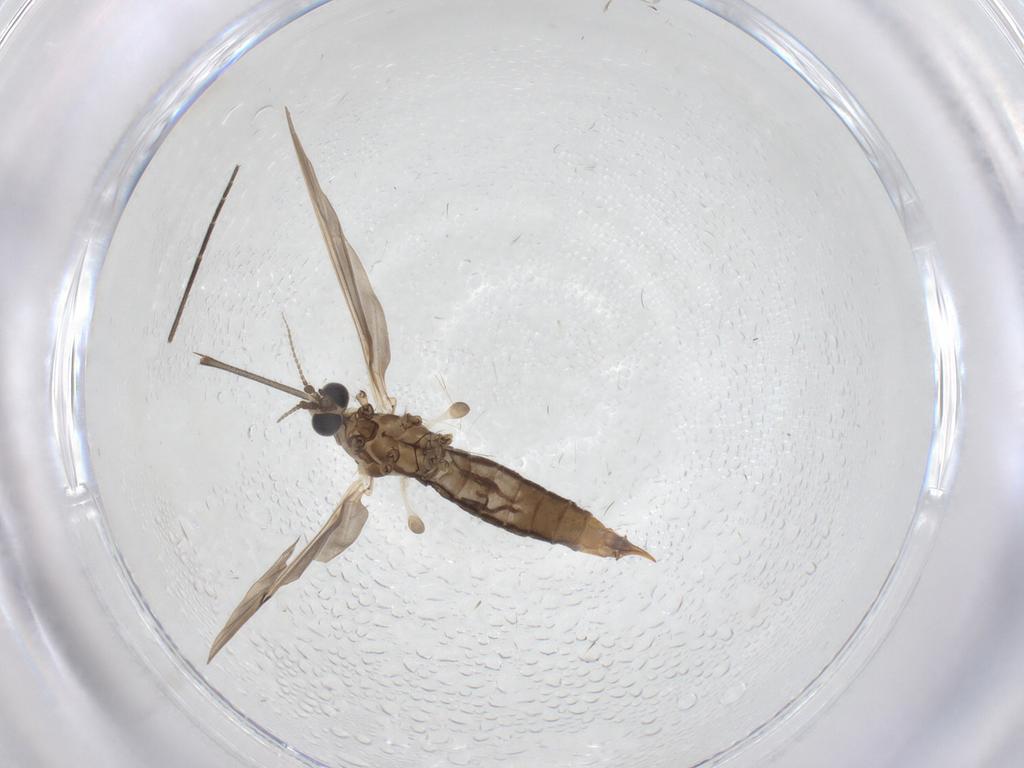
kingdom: Animalia
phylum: Arthropoda
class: Insecta
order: Diptera
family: Limoniidae
